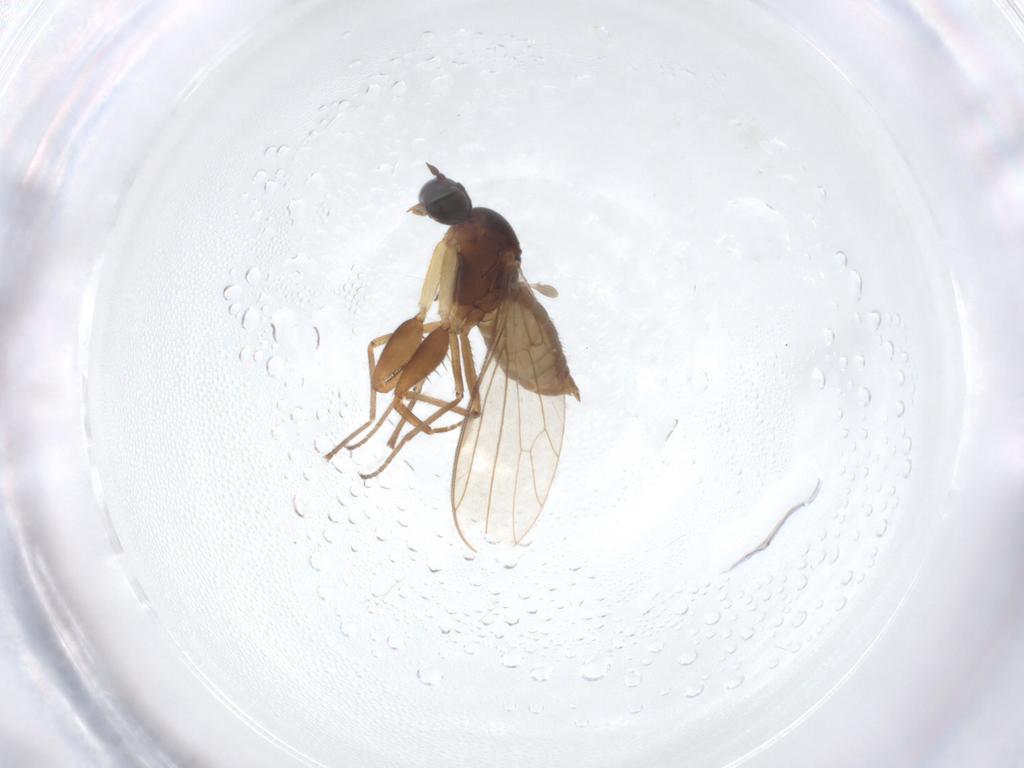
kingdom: Animalia
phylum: Arthropoda
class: Insecta
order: Diptera
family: Empididae
